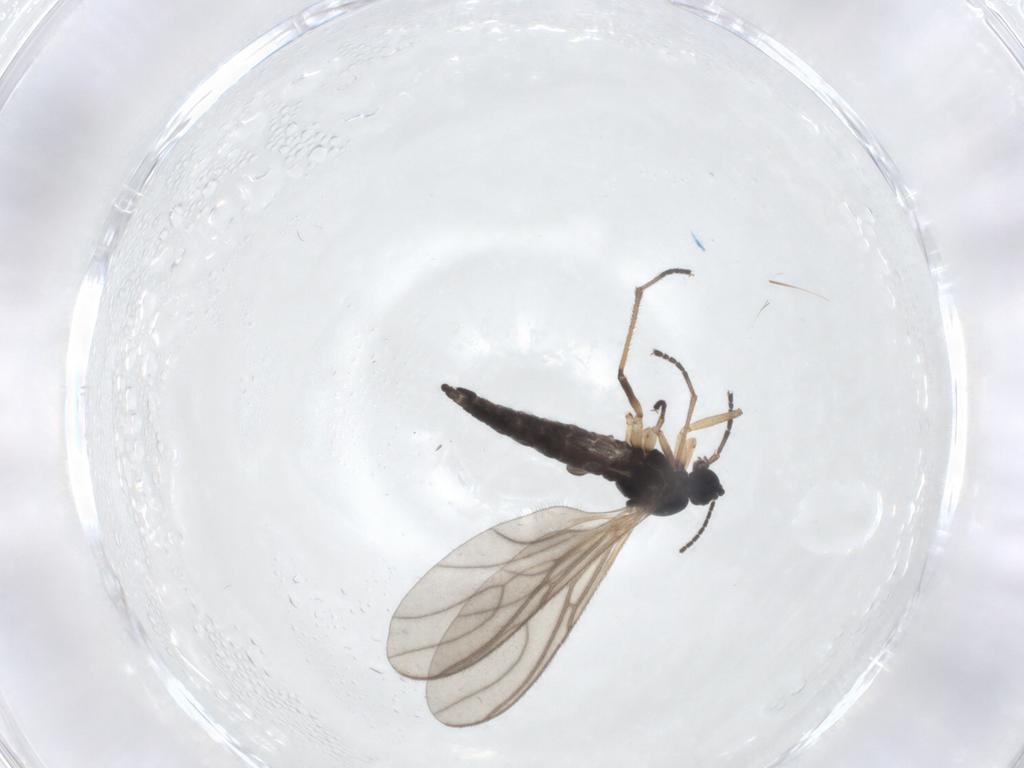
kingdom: Animalia
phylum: Arthropoda
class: Insecta
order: Diptera
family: Sciaridae
